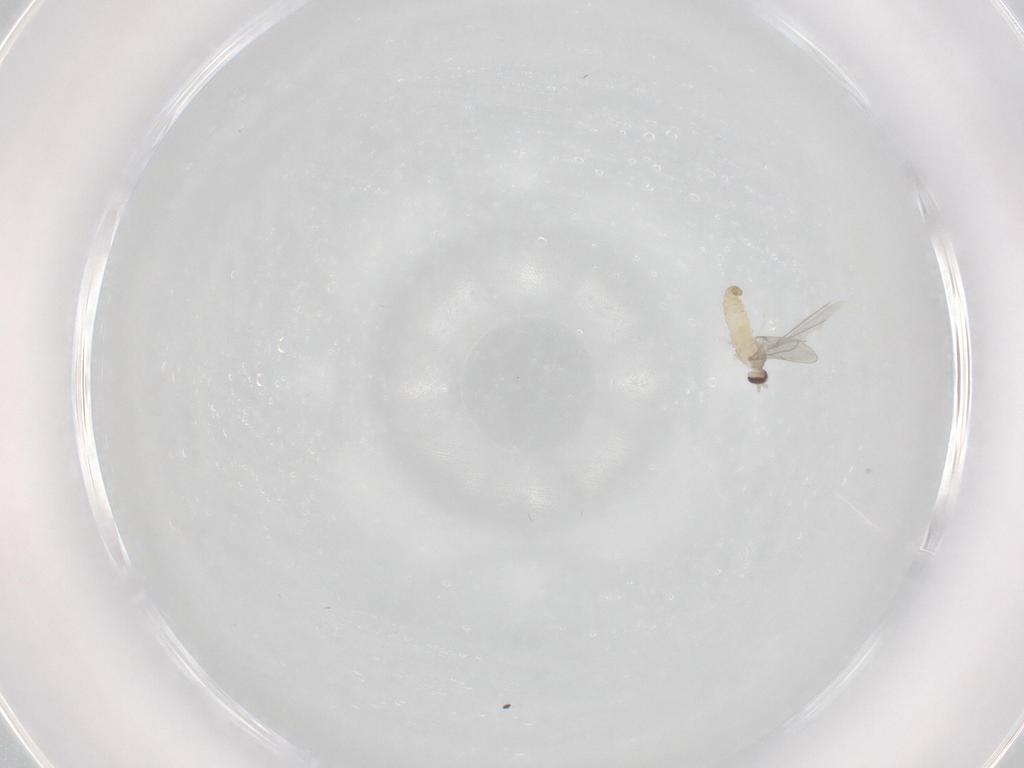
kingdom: Animalia
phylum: Arthropoda
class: Insecta
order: Diptera
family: Cecidomyiidae
